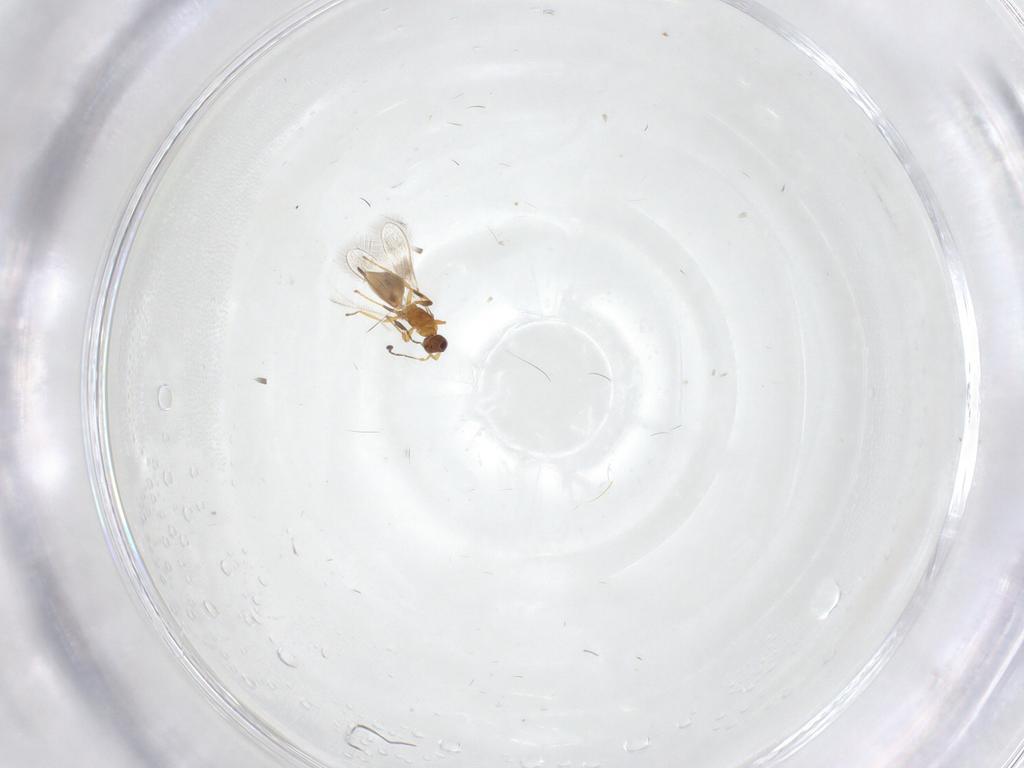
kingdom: Animalia
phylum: Arthropoda
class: Insecta
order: Hymenoptera
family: Mymaridae
